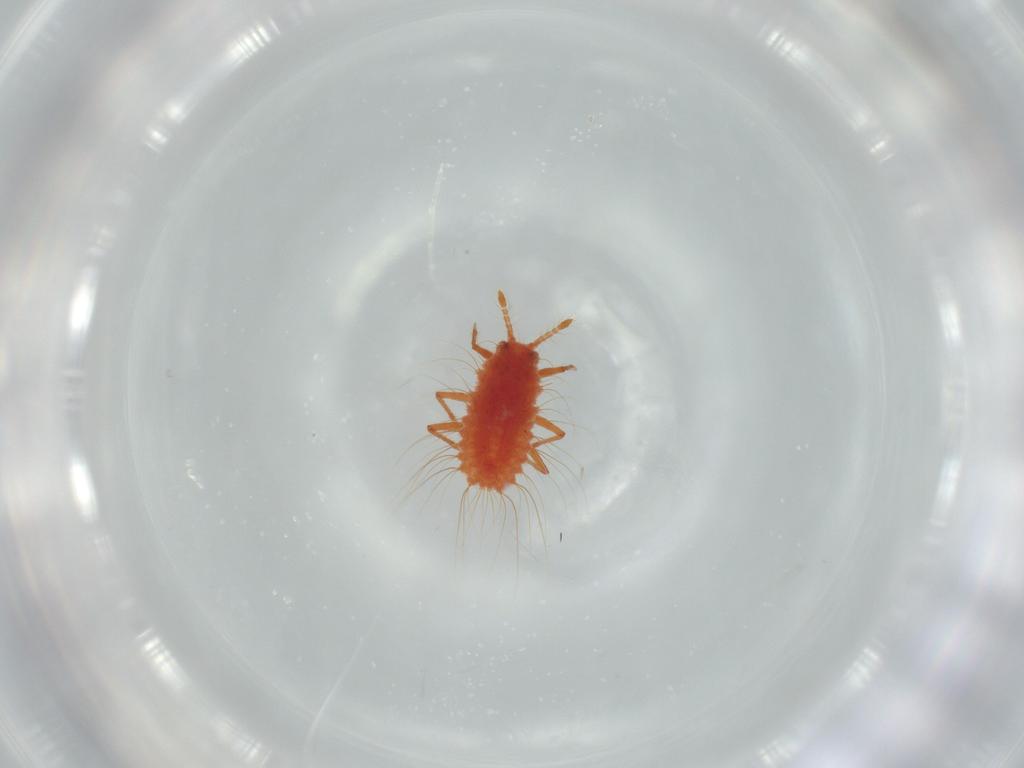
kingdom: Animalia
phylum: Arthropoda
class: Insecta
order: Hemiptera
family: Monophlebidae
